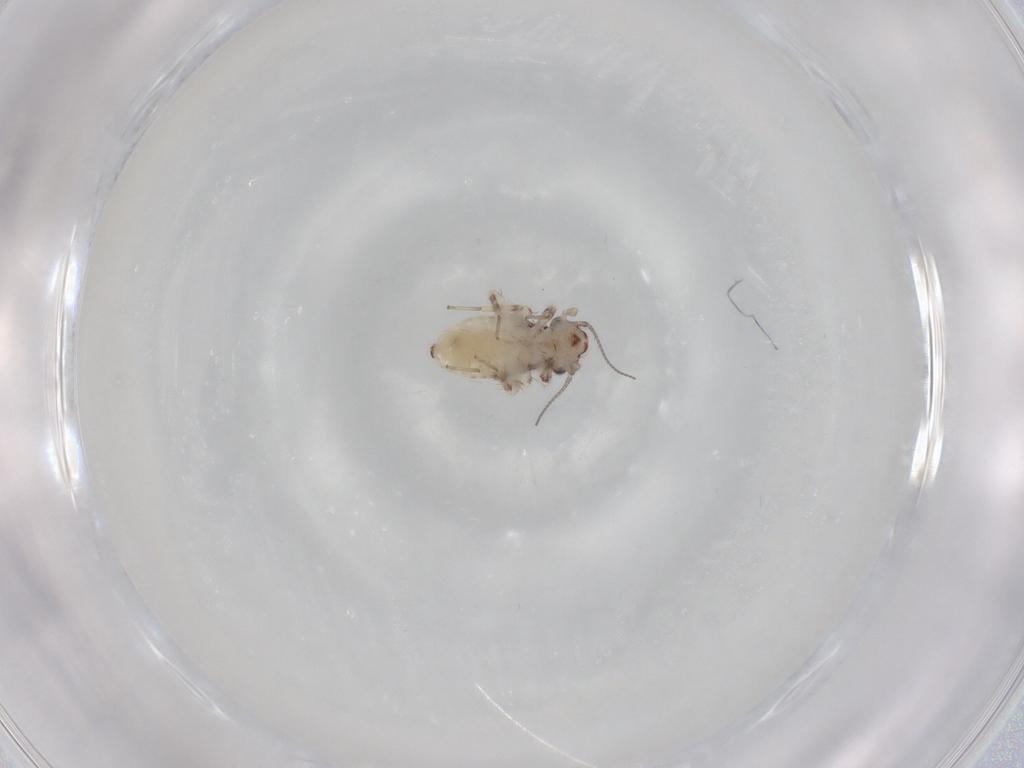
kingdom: Animalia
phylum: Arthropoda
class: Insecta
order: Psocodea
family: Lepidopsocidae
